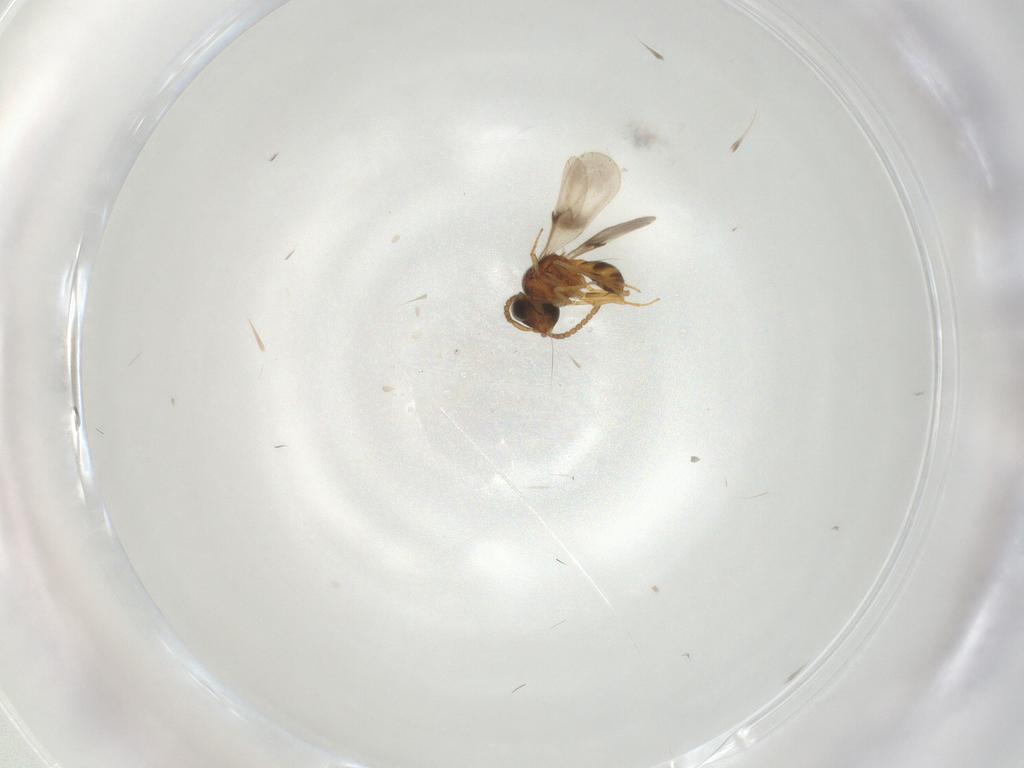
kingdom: Animalia
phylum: Arthropoda
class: Insecta
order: Hymenoptera
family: Scelionidae
